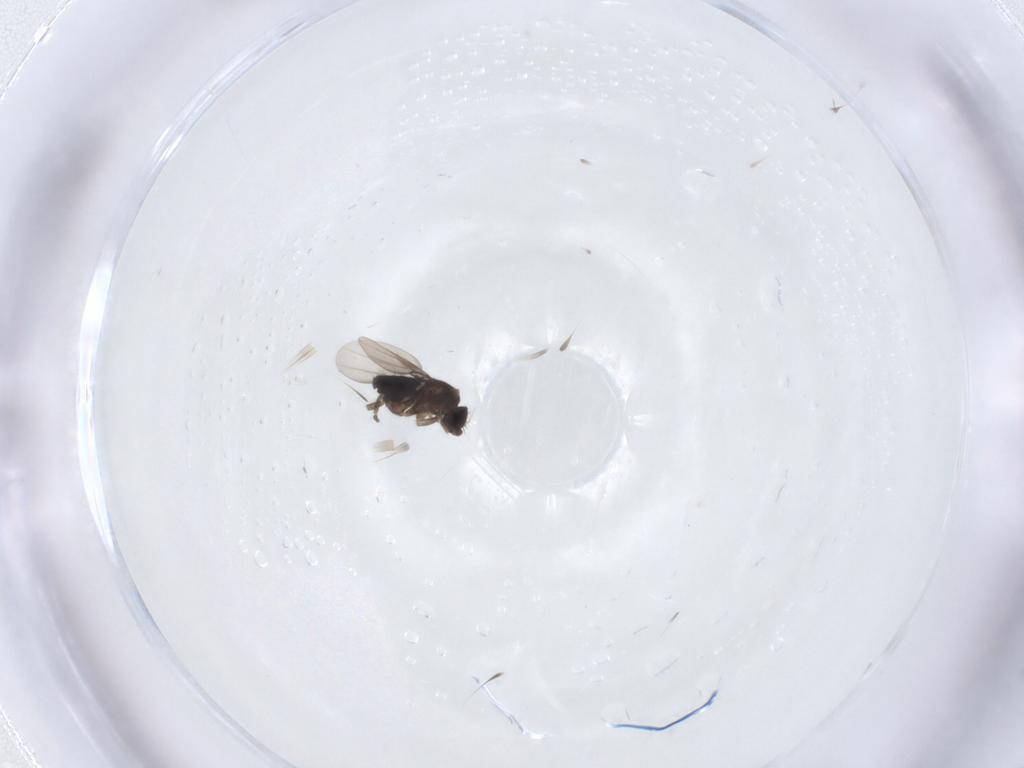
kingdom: Animalia
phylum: Arthropoda
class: Insecta
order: Diptera
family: Phoridae
